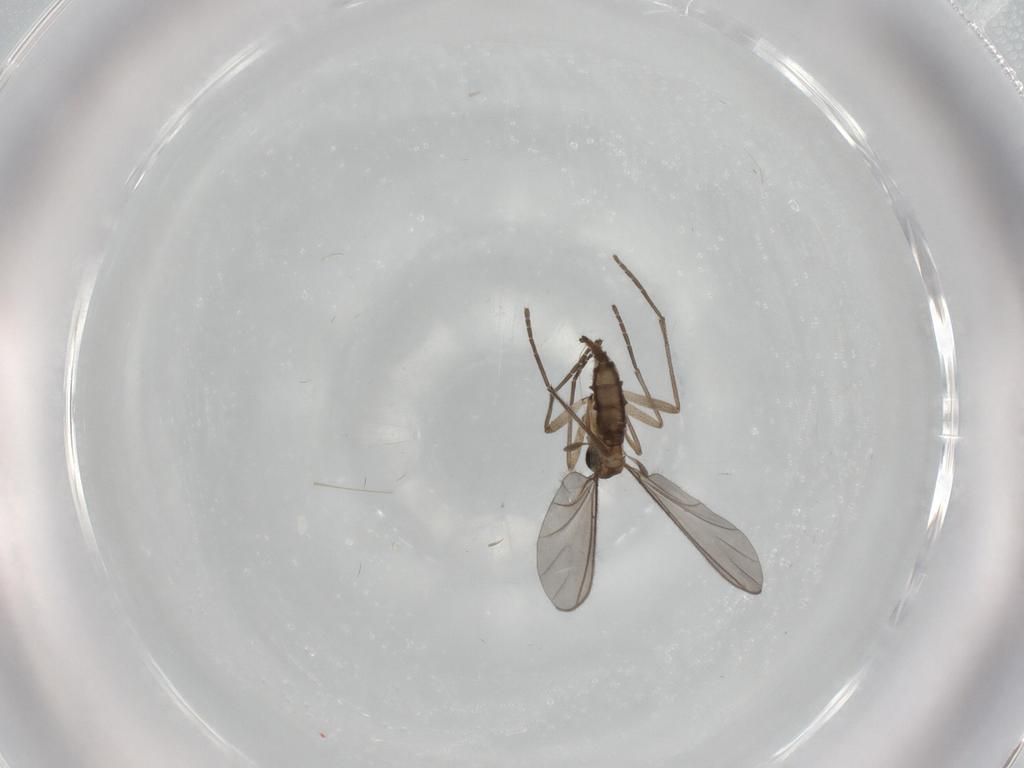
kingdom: Animalia
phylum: Arthropoda
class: Insecta
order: Diptera
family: Sciaridae
